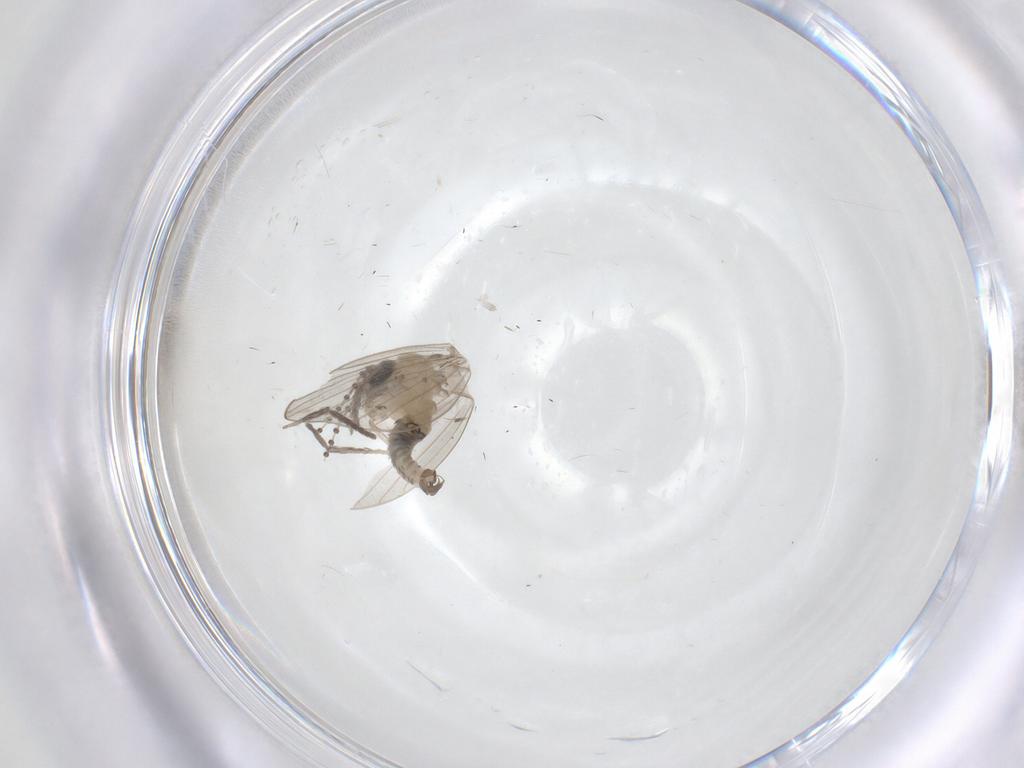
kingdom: Animalia
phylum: Arthropoda
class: Insecta
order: Diptera
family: Psychodidae
